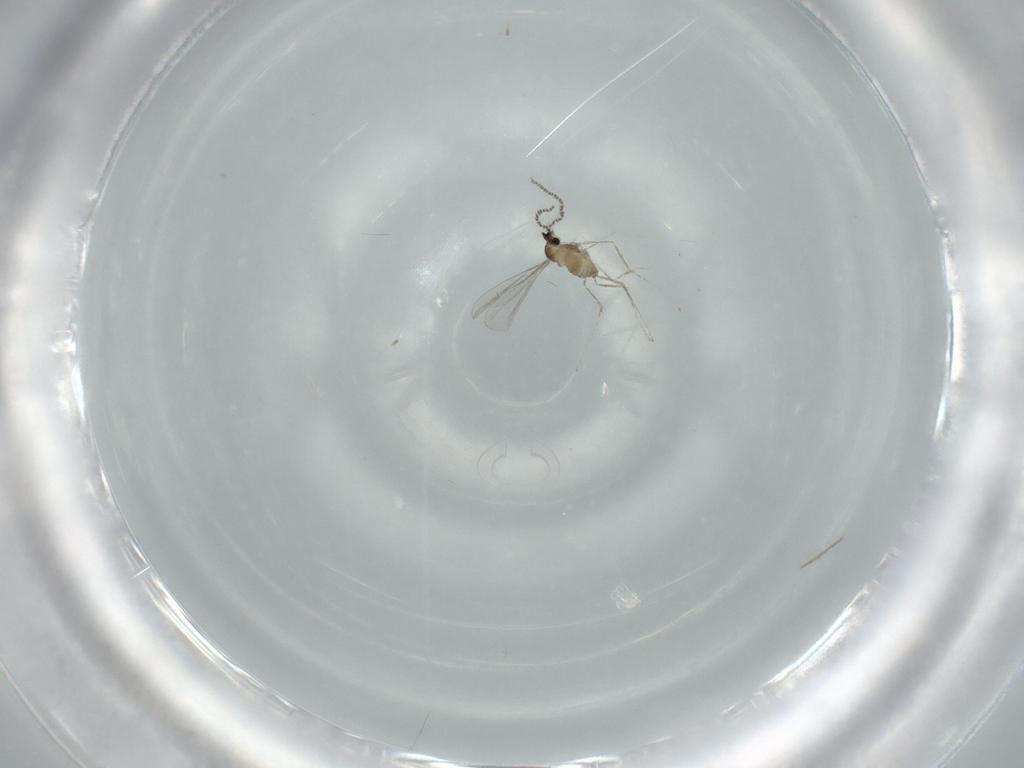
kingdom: Animalia
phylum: Arthropoda
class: Insecta
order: Diptera
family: Cecidomyiidae
